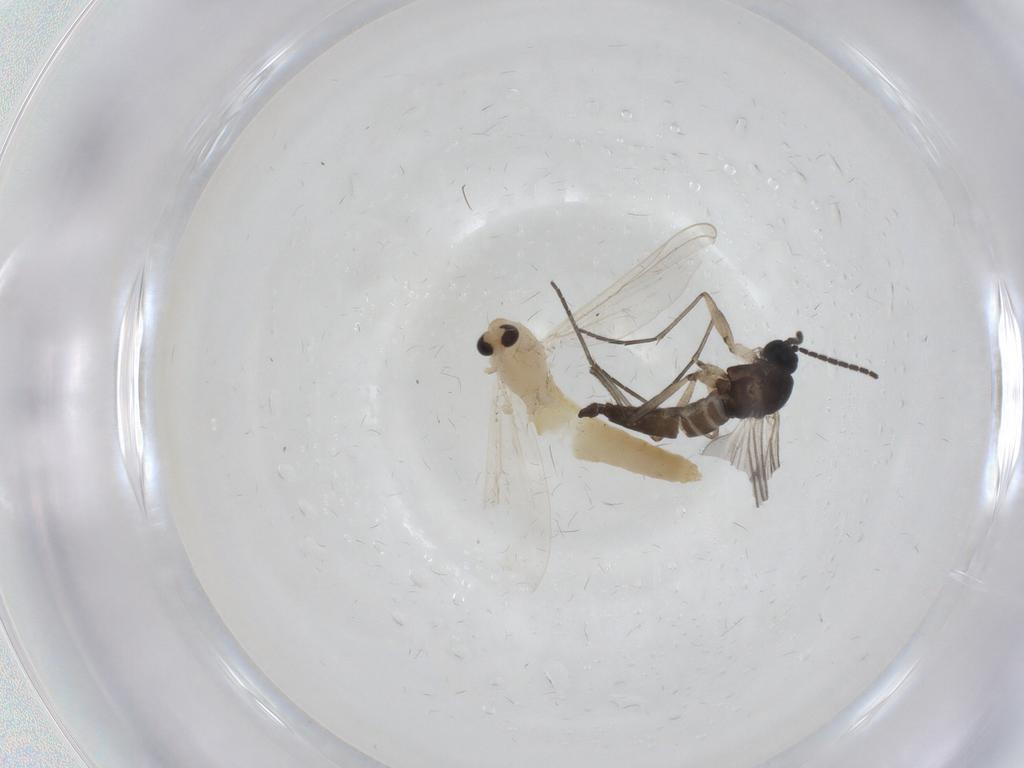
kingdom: Animalia
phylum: Arthropoda
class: Insecta
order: Diptera
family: Chironomidae
